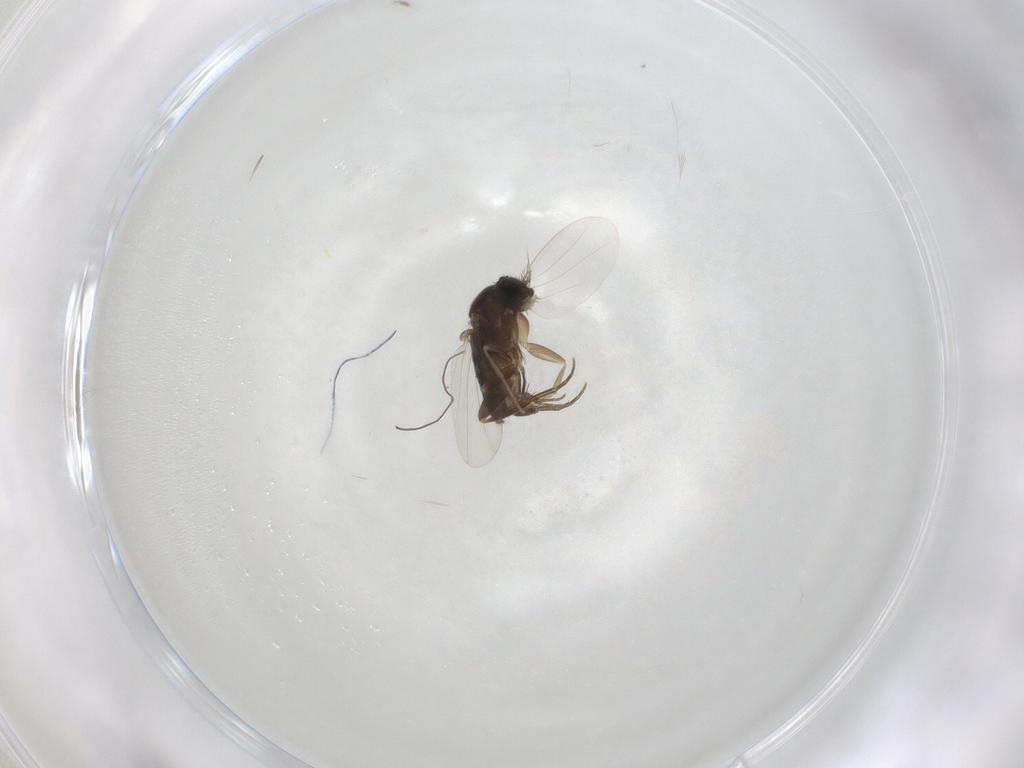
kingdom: Animalia
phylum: Arthropoda
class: Insecta
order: Diptera
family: Phoridae
